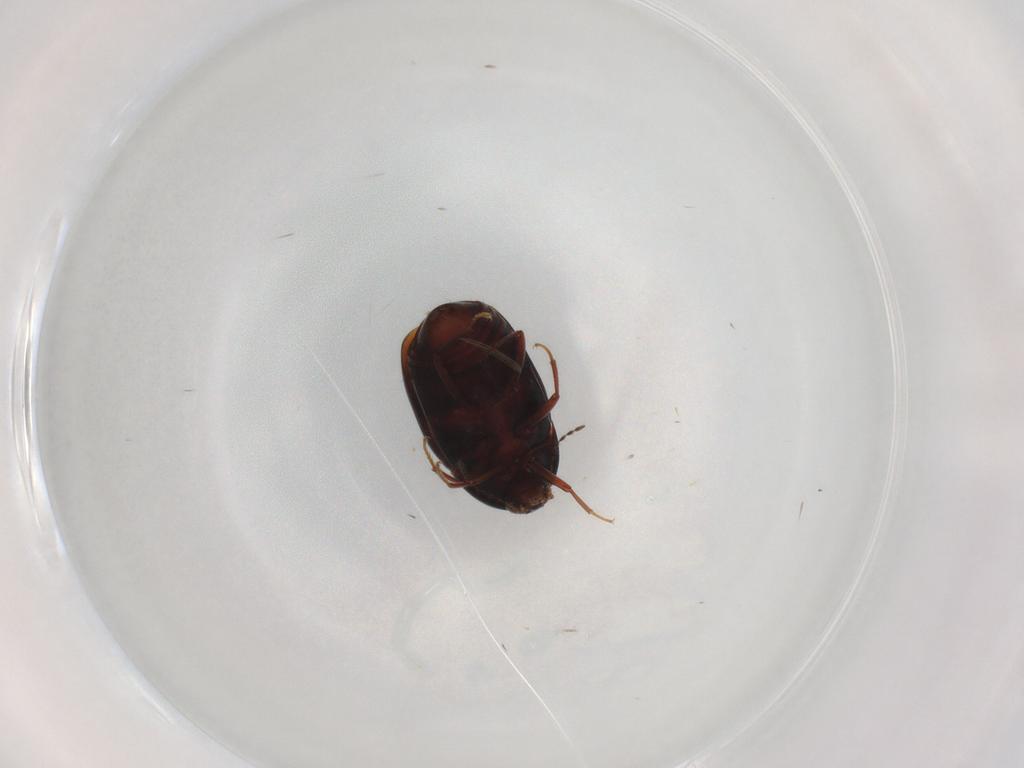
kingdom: Animalia
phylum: Arthropoda
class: Insecta
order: Coleoptera
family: Staphylinidae
